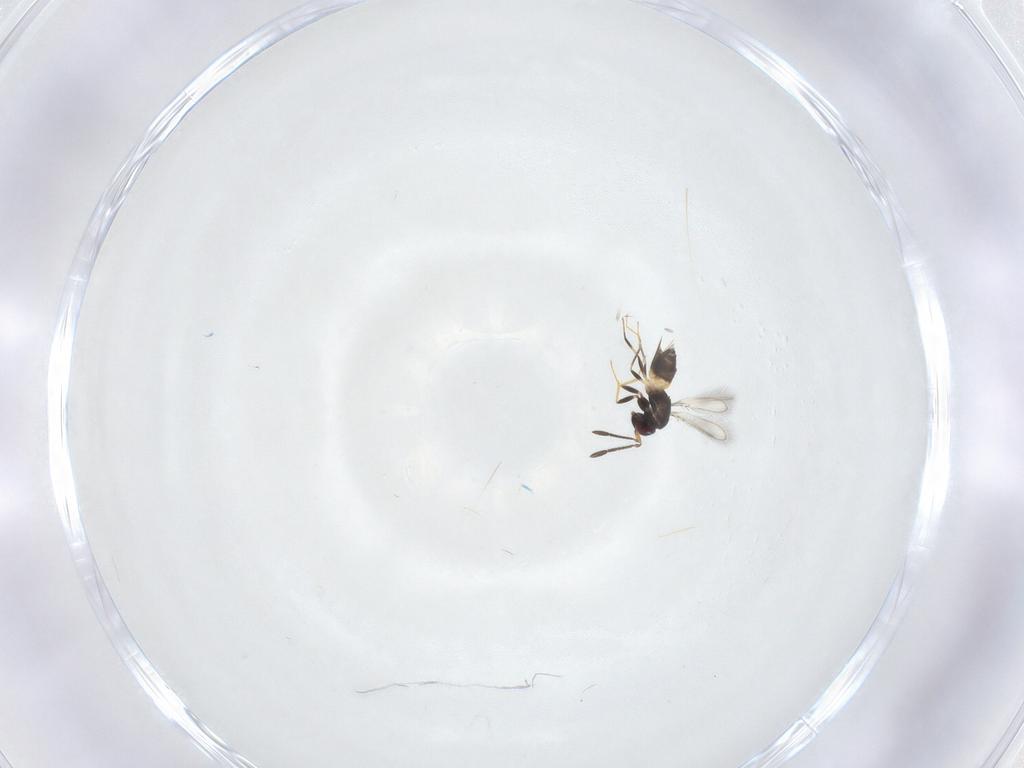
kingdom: Animalia
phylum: Arthropoda
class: Insecta
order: Hymenoptera
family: Mymaridae
